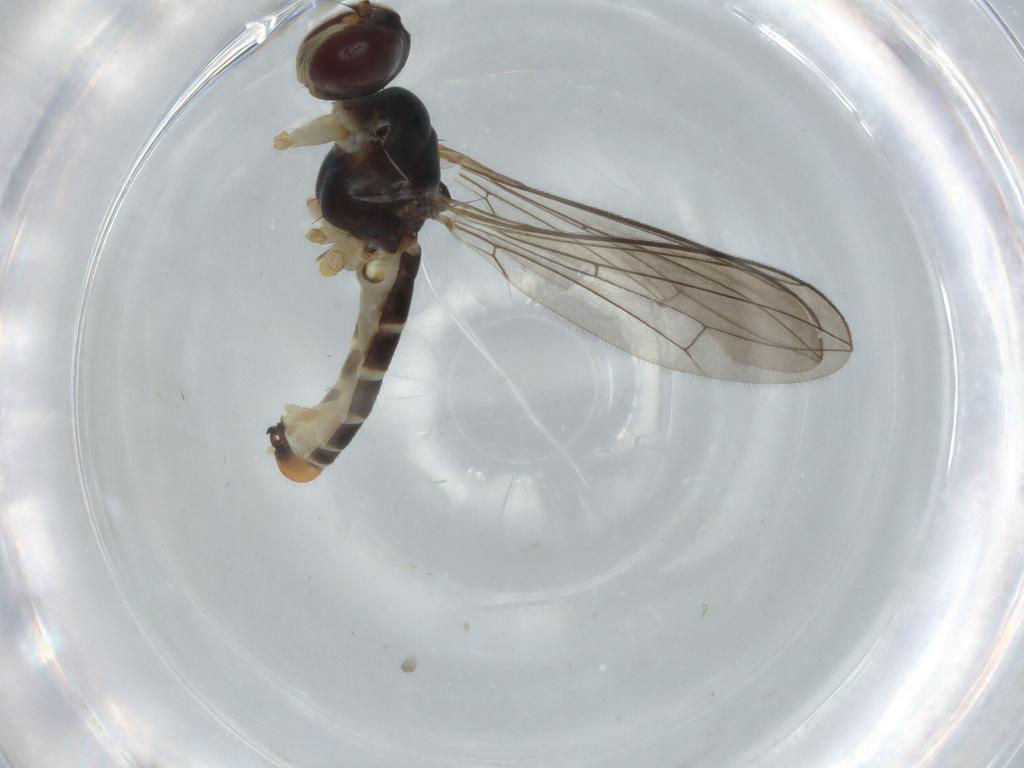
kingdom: Animalia
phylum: Arthropoda
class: Insecta
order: Diptera
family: Micropezidae
